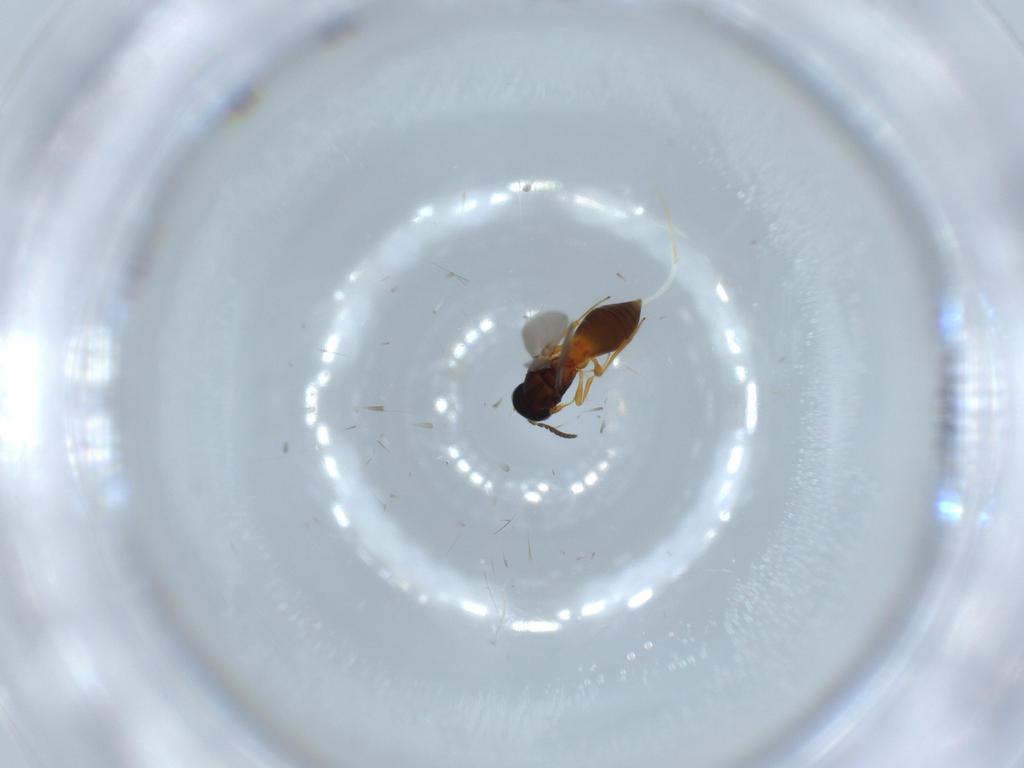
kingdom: Animalia
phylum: Arthropoda
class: Insecta
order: Hymenoptera
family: Platygastridae
